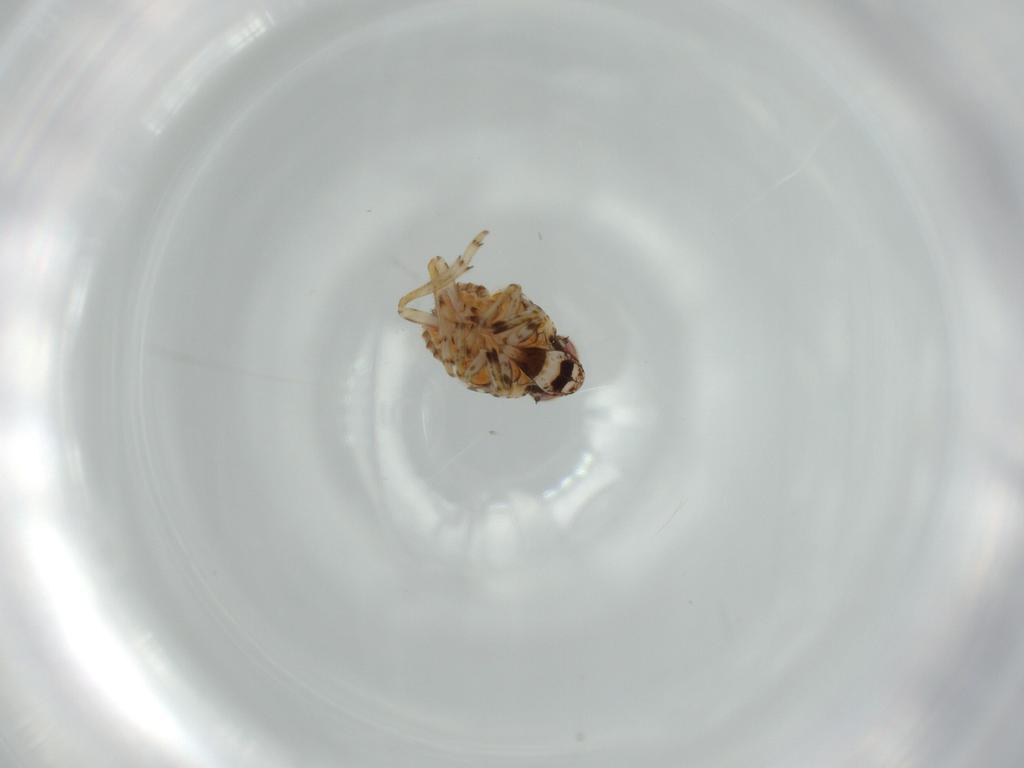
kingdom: Animalia
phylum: Arthropoda
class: Insecta
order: Hemiptera
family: Issidae
